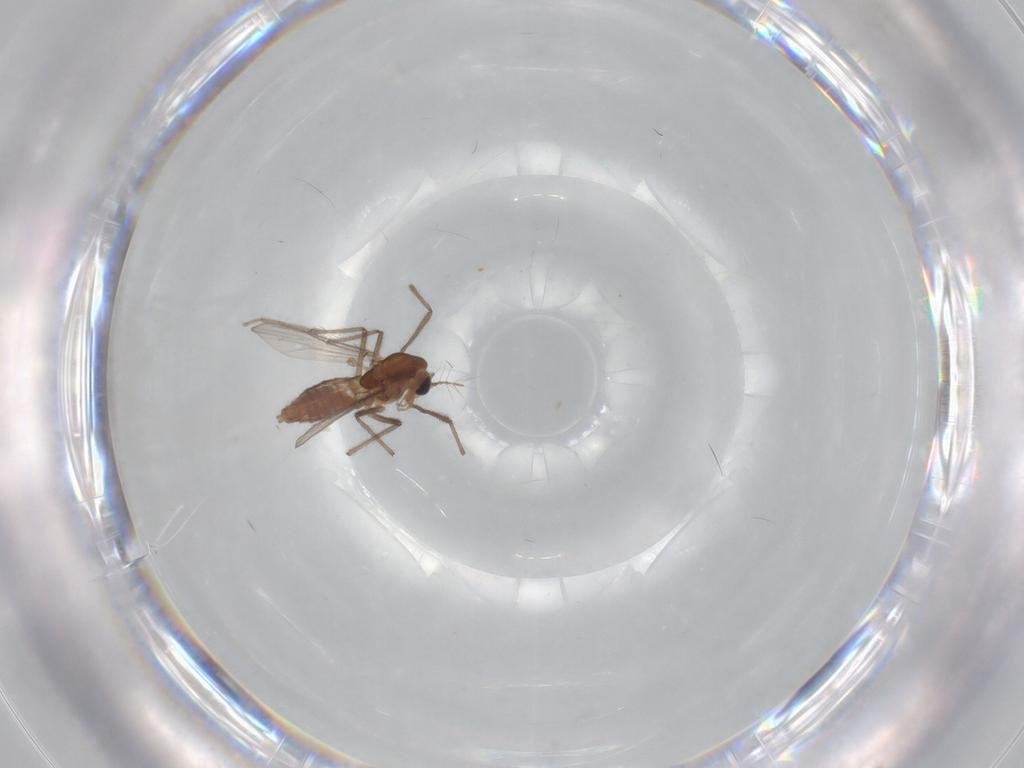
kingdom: Animalia
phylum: Arthropoda
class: Insecta
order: Diptera
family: Chironomidae
